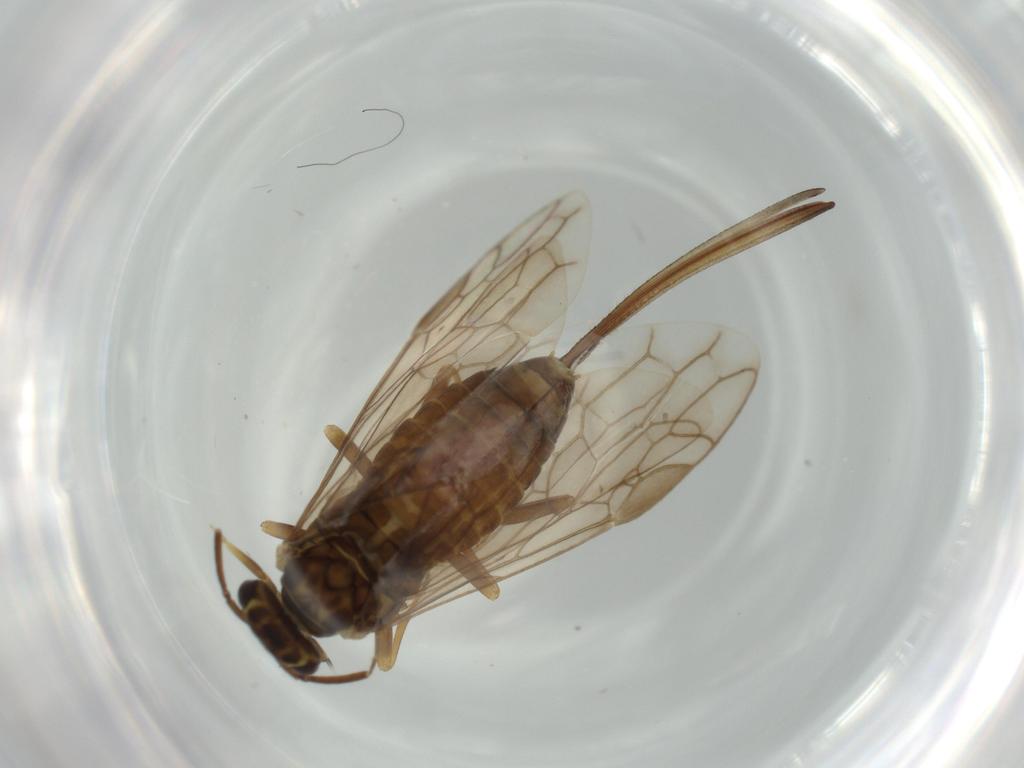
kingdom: Animalia
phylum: Arthropoda
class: Insecta
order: Hymenoptera
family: Xyelidae
